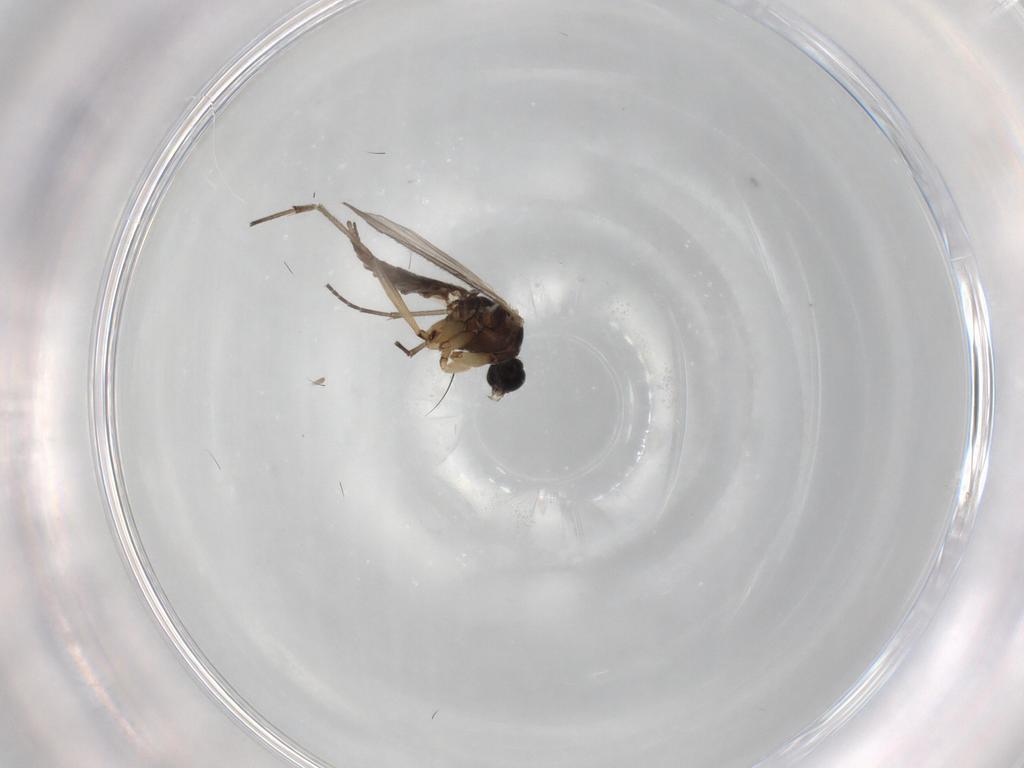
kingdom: Animalia
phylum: Arthropoda
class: Insecta
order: Diptera
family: Sciaridae
